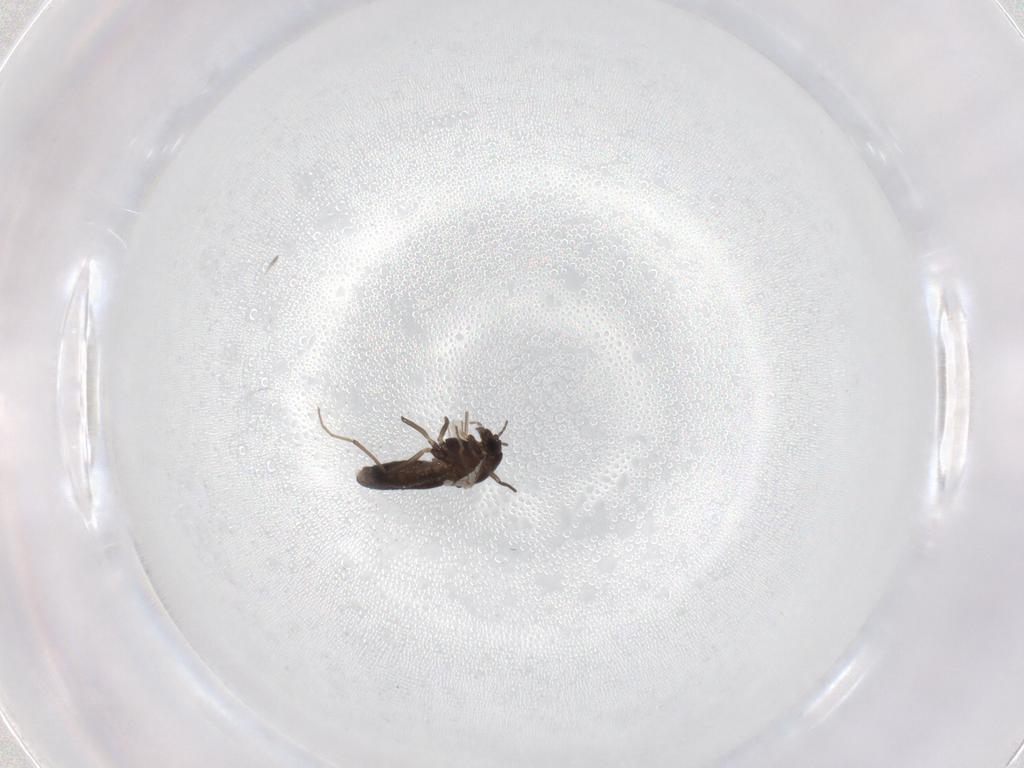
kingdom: Animalia
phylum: Arthropoda
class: Insecta
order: Diptera
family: Chironomidae
